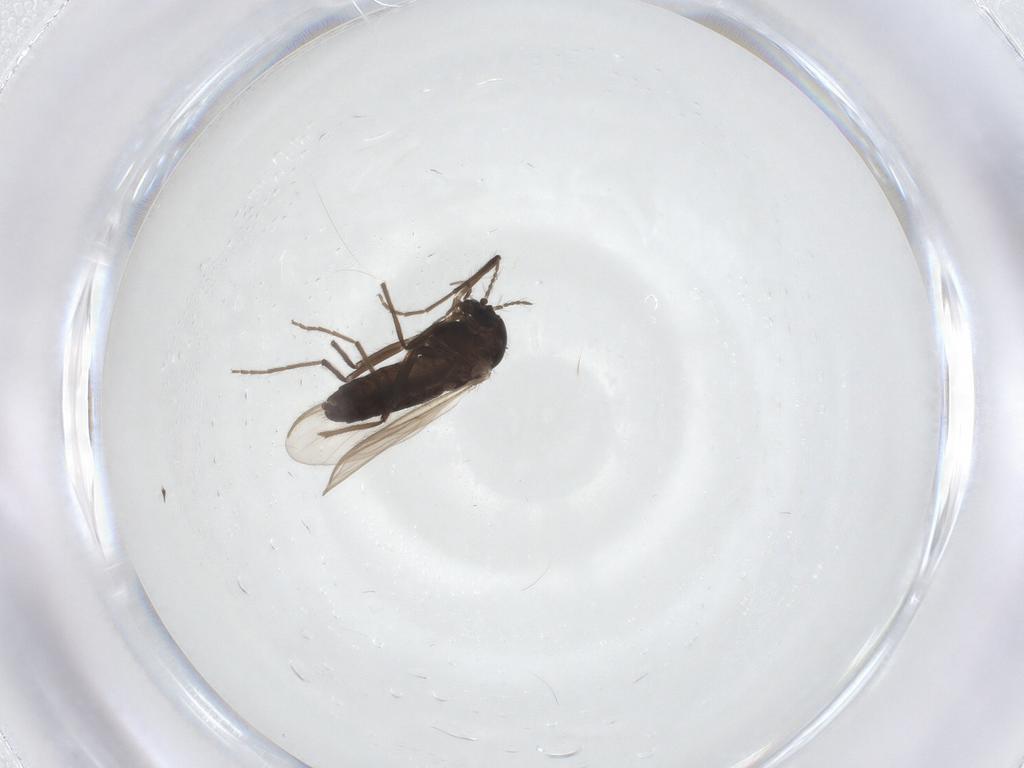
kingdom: Animalia
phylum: Arthropoda
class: Insecta
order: Diptera
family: Chironomidae
